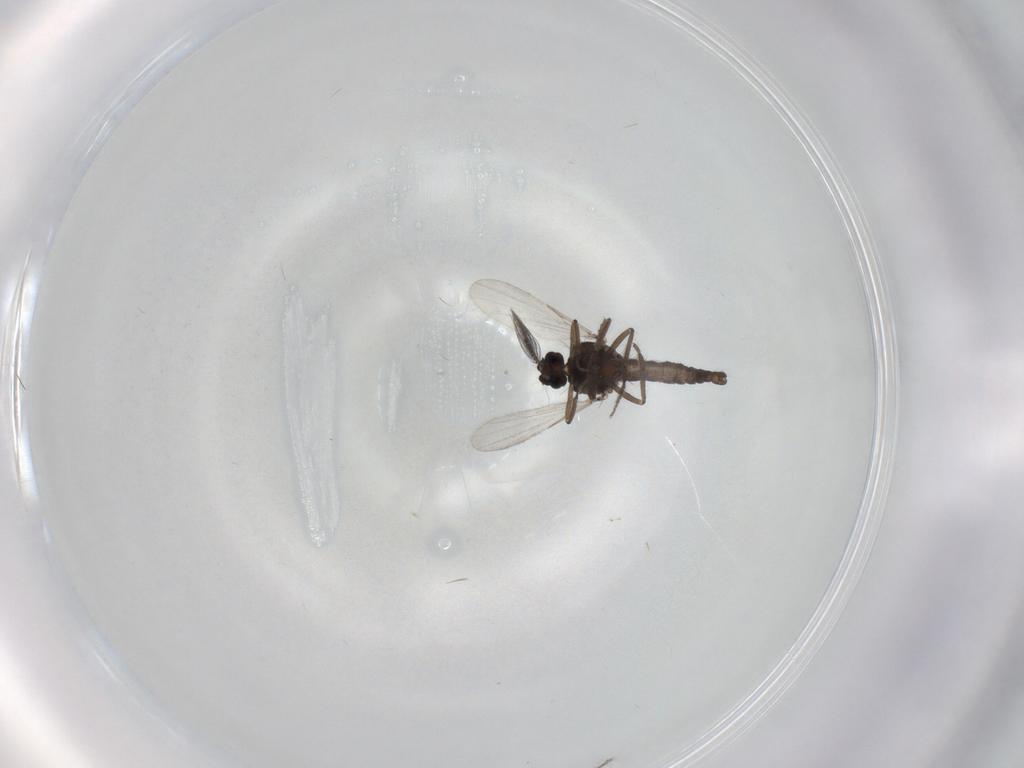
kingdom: Animalia
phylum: Arthropoda
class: Insecta
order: Diptera
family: Ceratopogonidae
